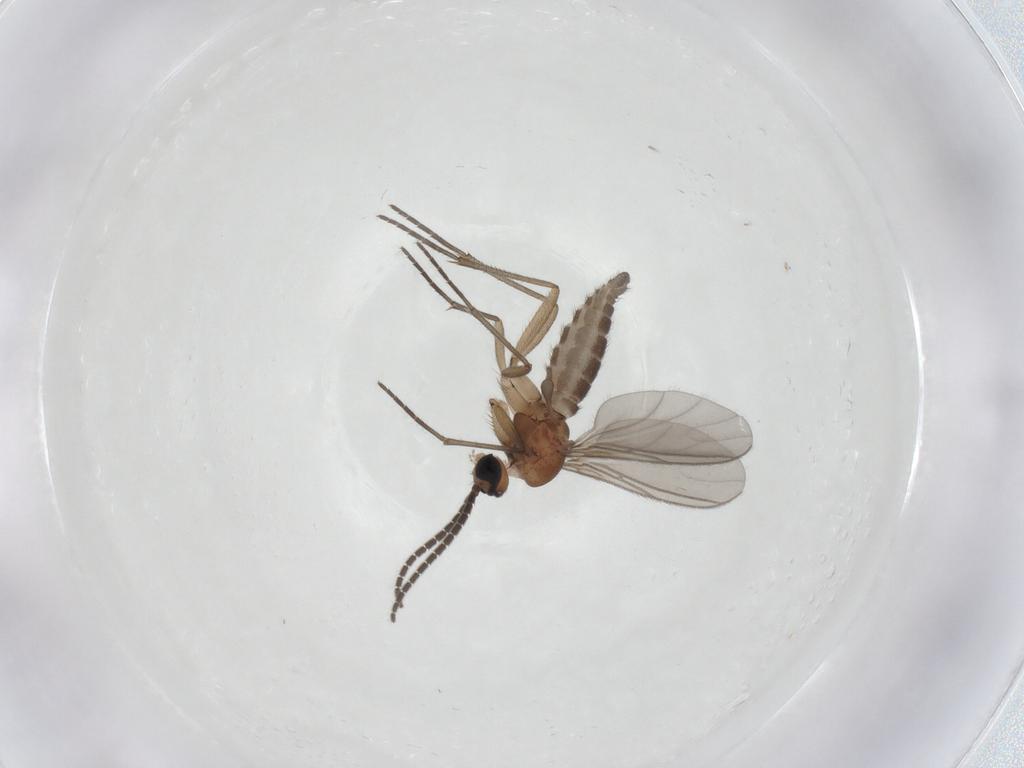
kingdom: Animalia
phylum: Arthropoda
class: Insecta
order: Diptera
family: Sciaridae
